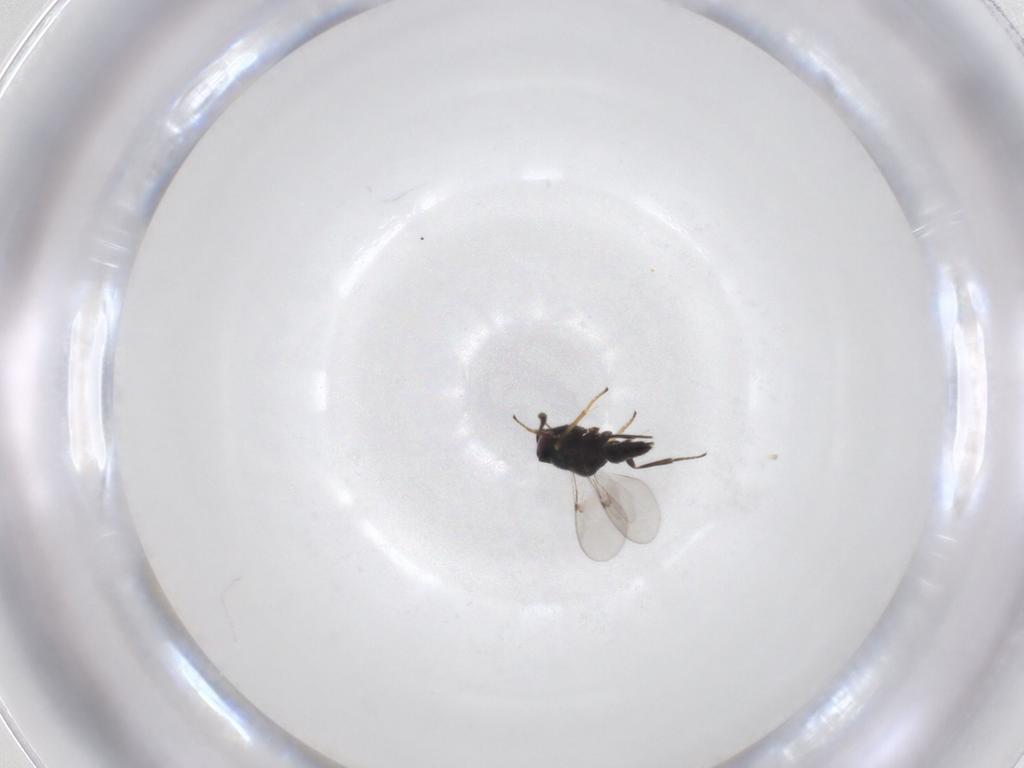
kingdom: Animalia
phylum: Arthropoda
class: Insecta
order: Hymenoptera
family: Encyrtidae
